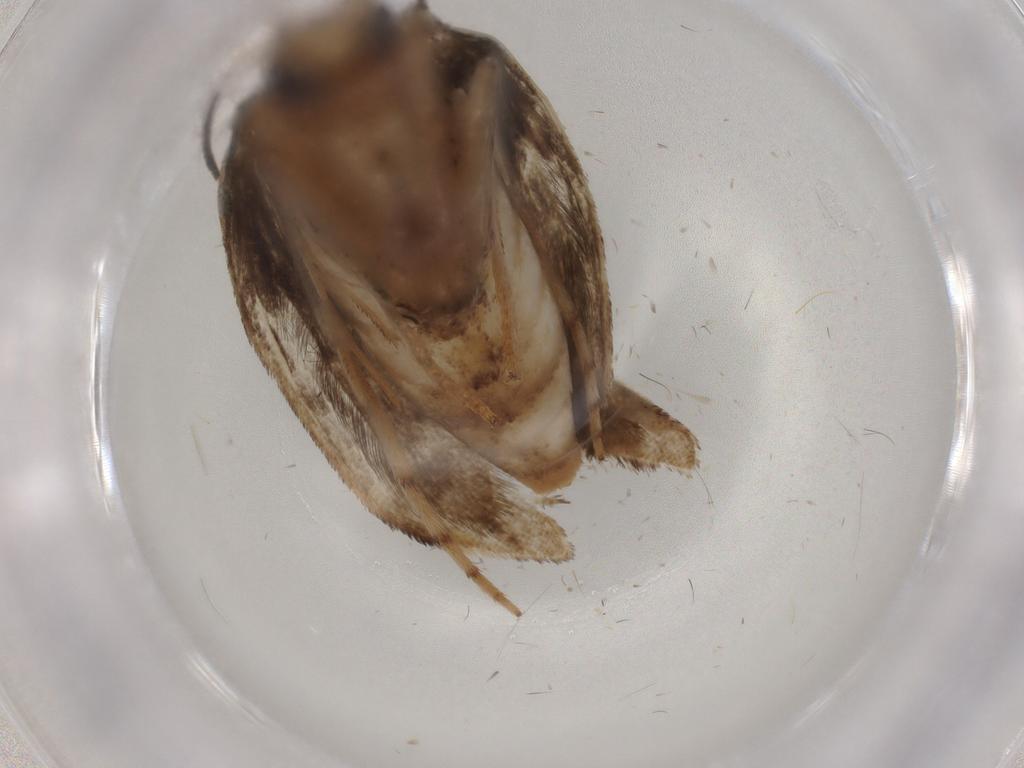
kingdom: Animalia
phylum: Arthropoda
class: Insecta
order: Lepidoptera
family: Yponomeutidae
